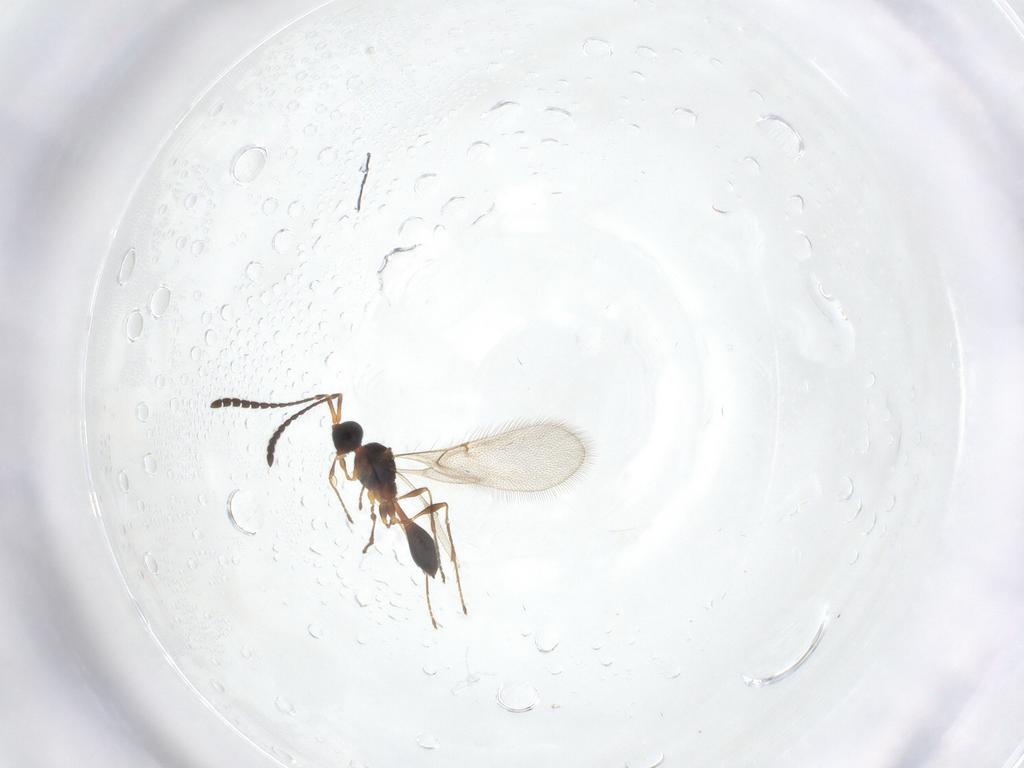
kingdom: Animalia
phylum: Arthropoda
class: Insecta
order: Hymenoptera
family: Diapriidae
